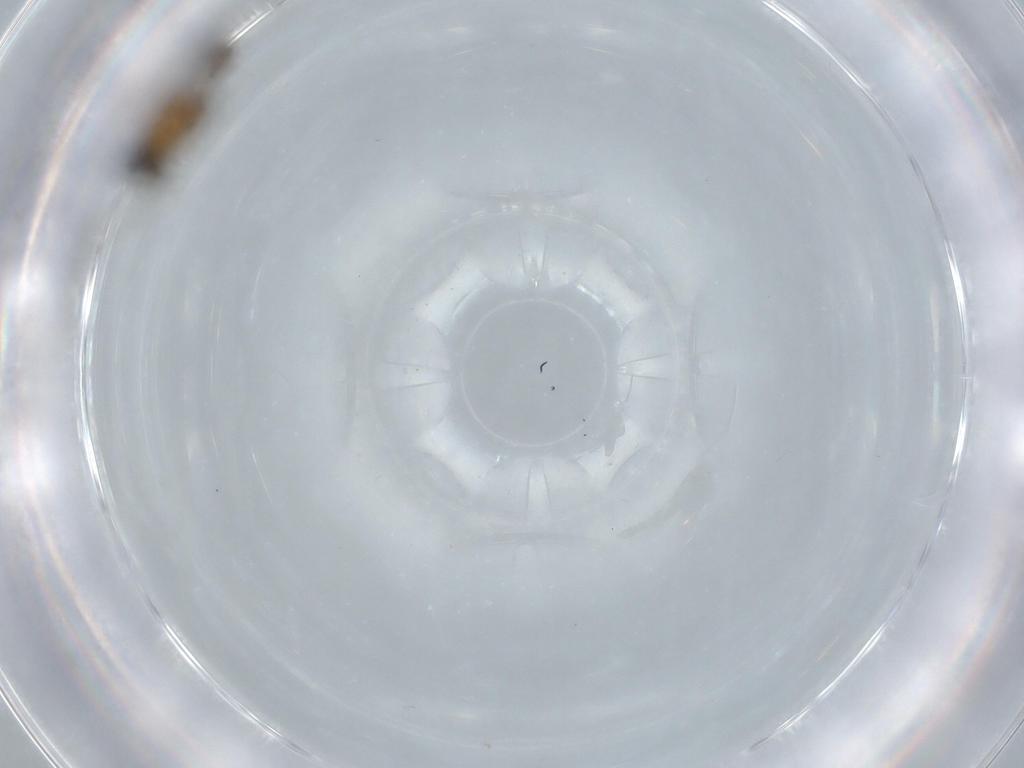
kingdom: Animalia
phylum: Arthropoda
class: Insecta
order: Diptera
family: Sciaridae
